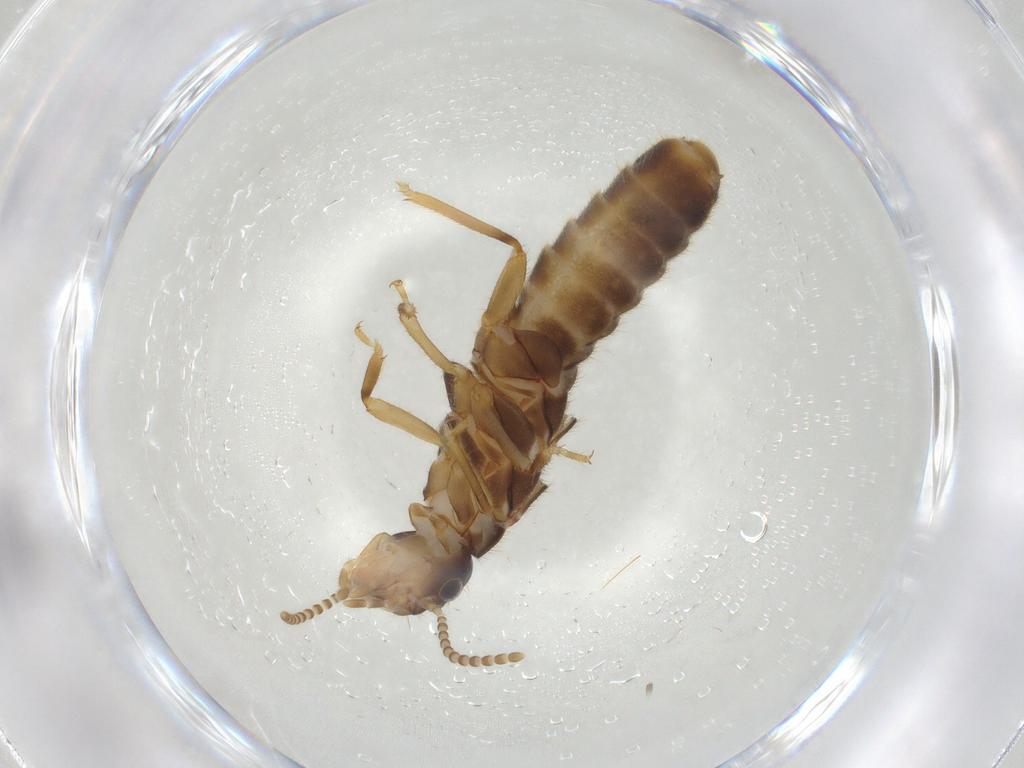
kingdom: Animalia
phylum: Arthropoda
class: Insecta
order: Blattodea
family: Termitidae
